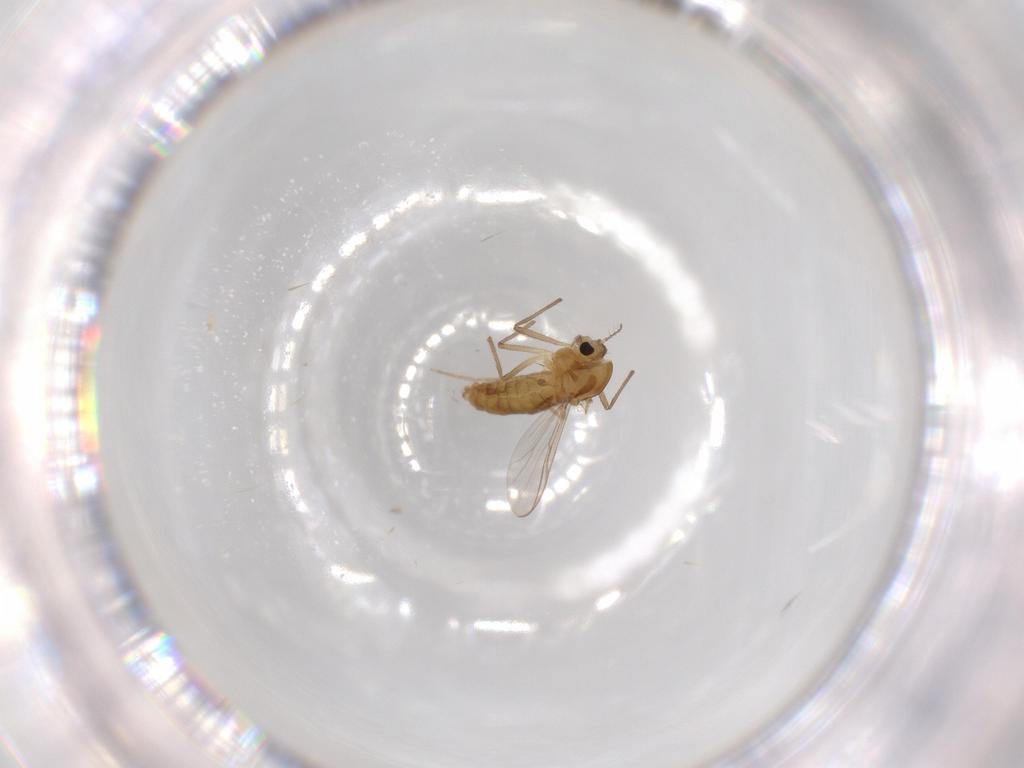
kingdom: Animalia
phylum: Arthropoda
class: Insecta
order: Diptera
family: Chironomidae
